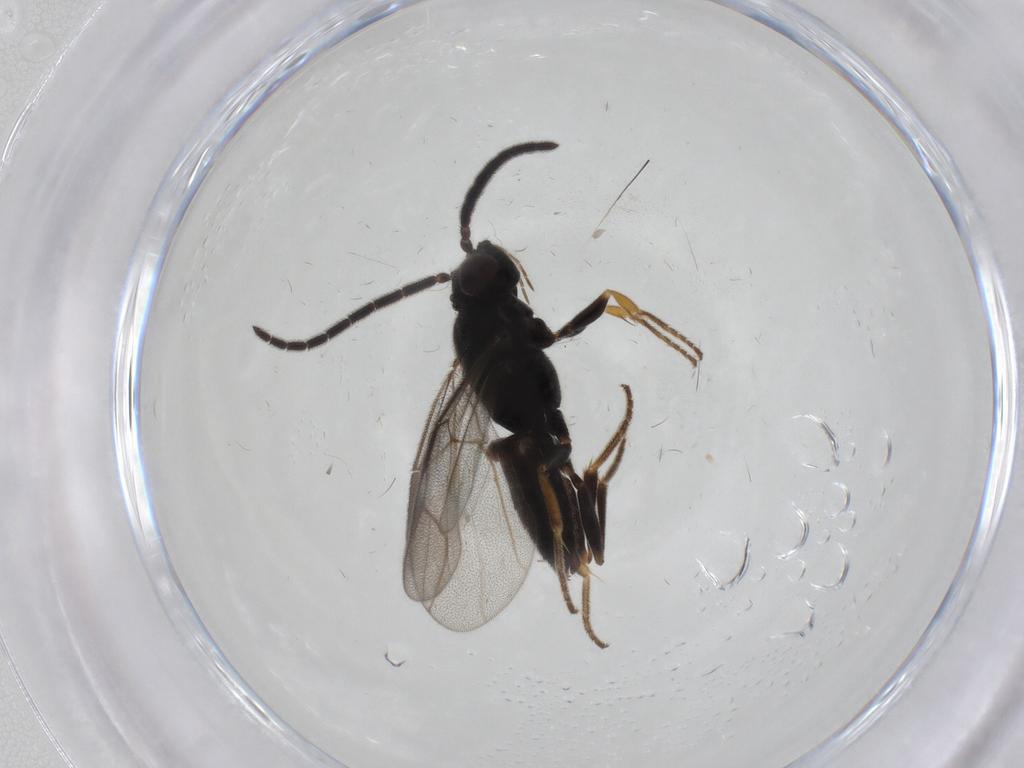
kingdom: Animalia
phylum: Arthropoda
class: Insecta
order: Hymenoptera
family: Dryinidae
